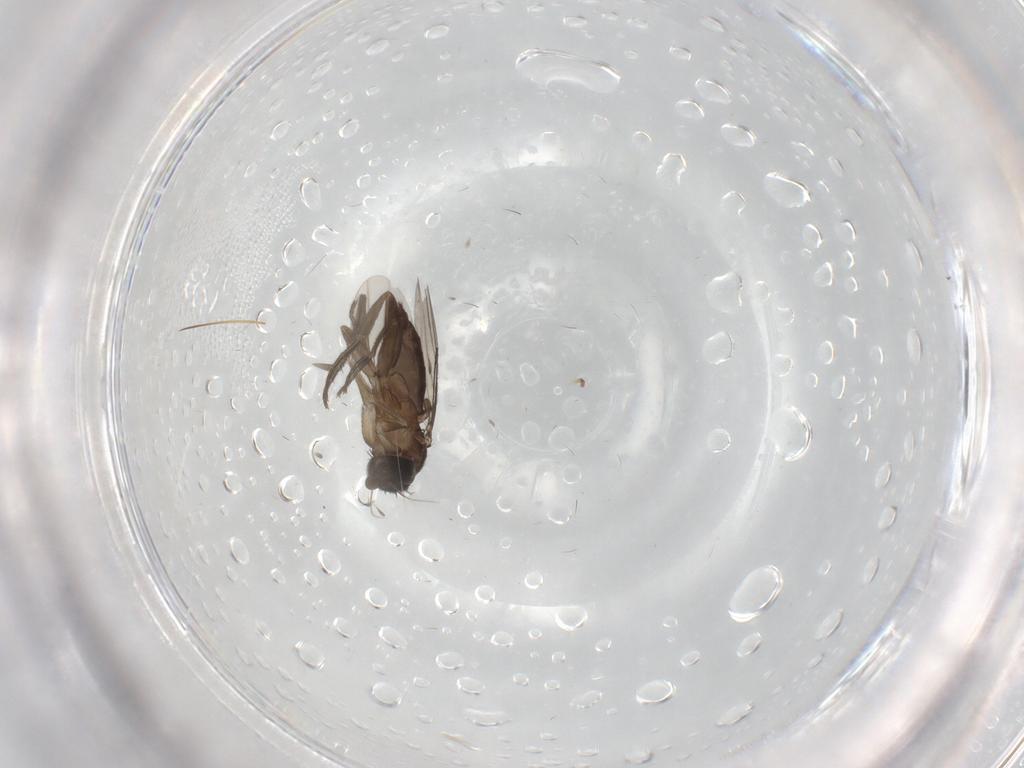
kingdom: Animalia
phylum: Arthropoda
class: Insecta
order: Diptera
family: Phoridae
